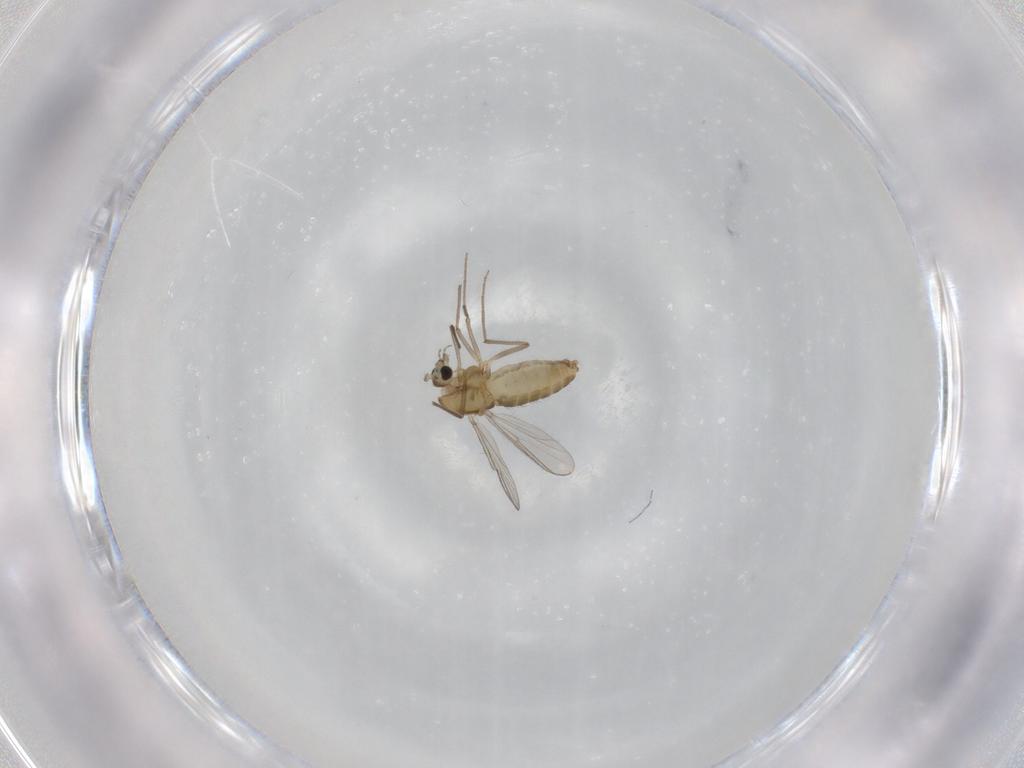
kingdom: Animalia
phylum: Arthropoda
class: Insecta
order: Diptera
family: Chironomidae
